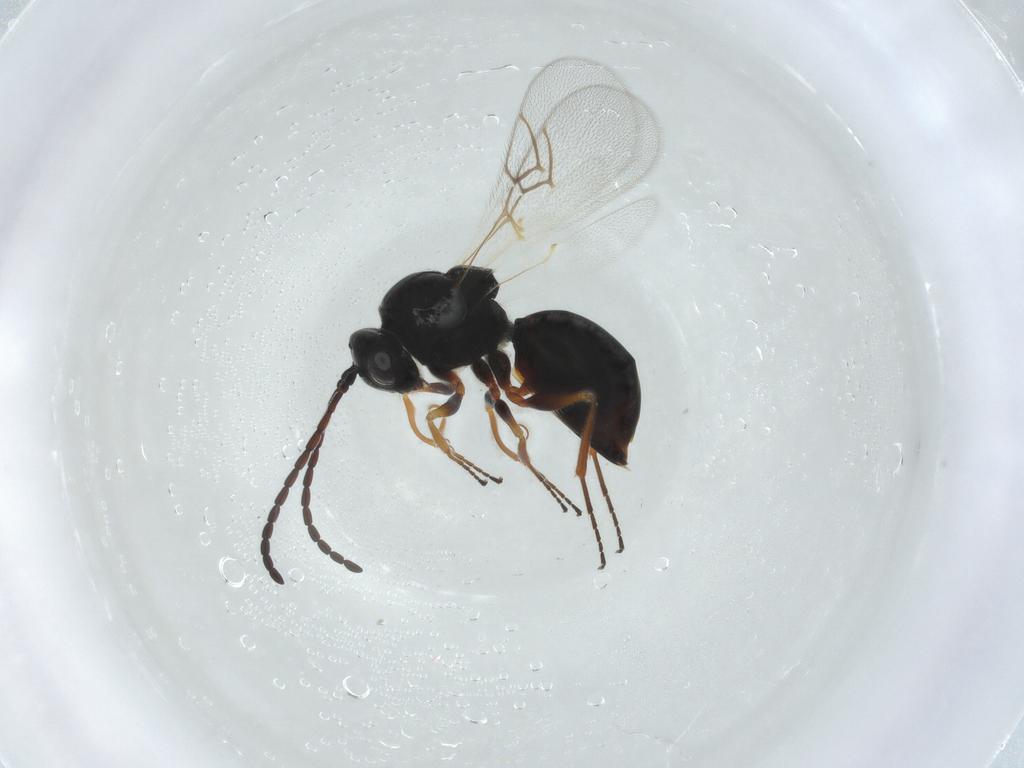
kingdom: Animalia
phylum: Arthropoda
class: Insecta
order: Hymenoptera
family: Figitidae
